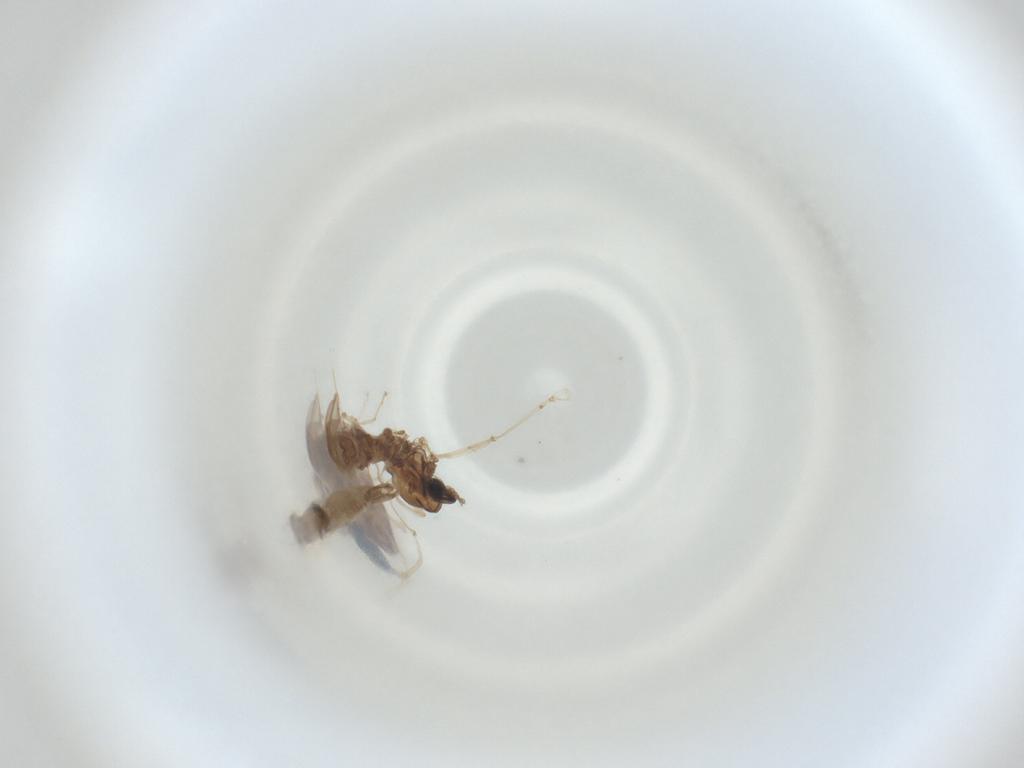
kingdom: Animalia
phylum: Arthropoda
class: Insecta
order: Diptera
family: Cecidomyiidae
